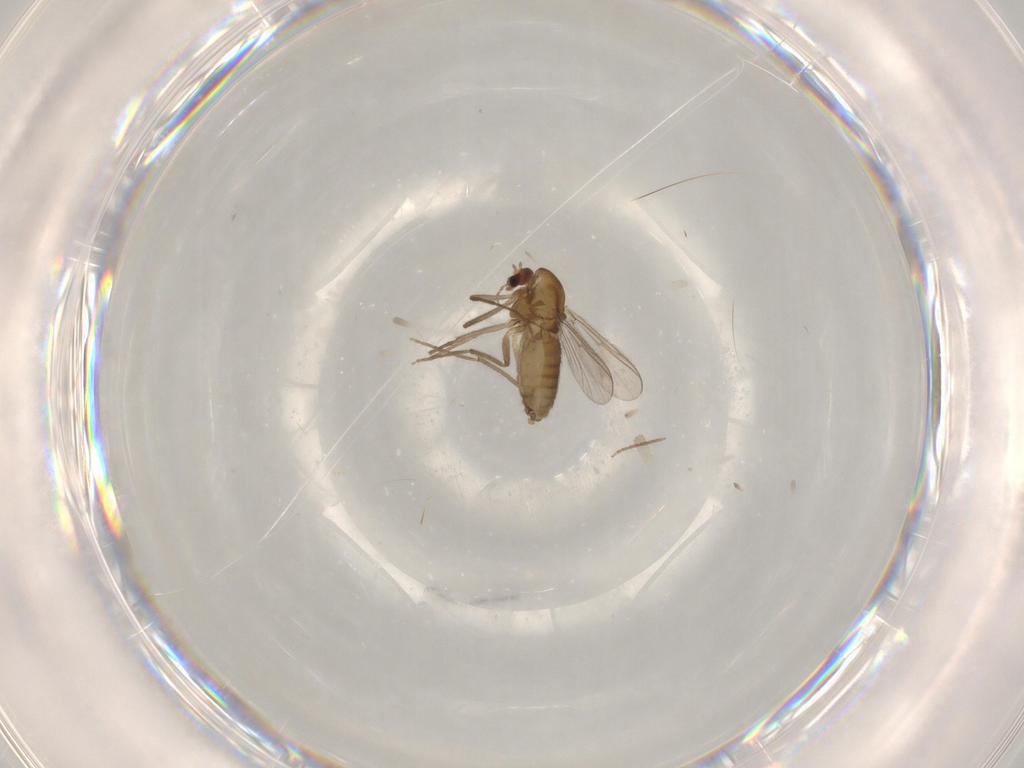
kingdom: Animalia
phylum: Arthropoda
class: Insecta
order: Diptera
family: Chironomidae
